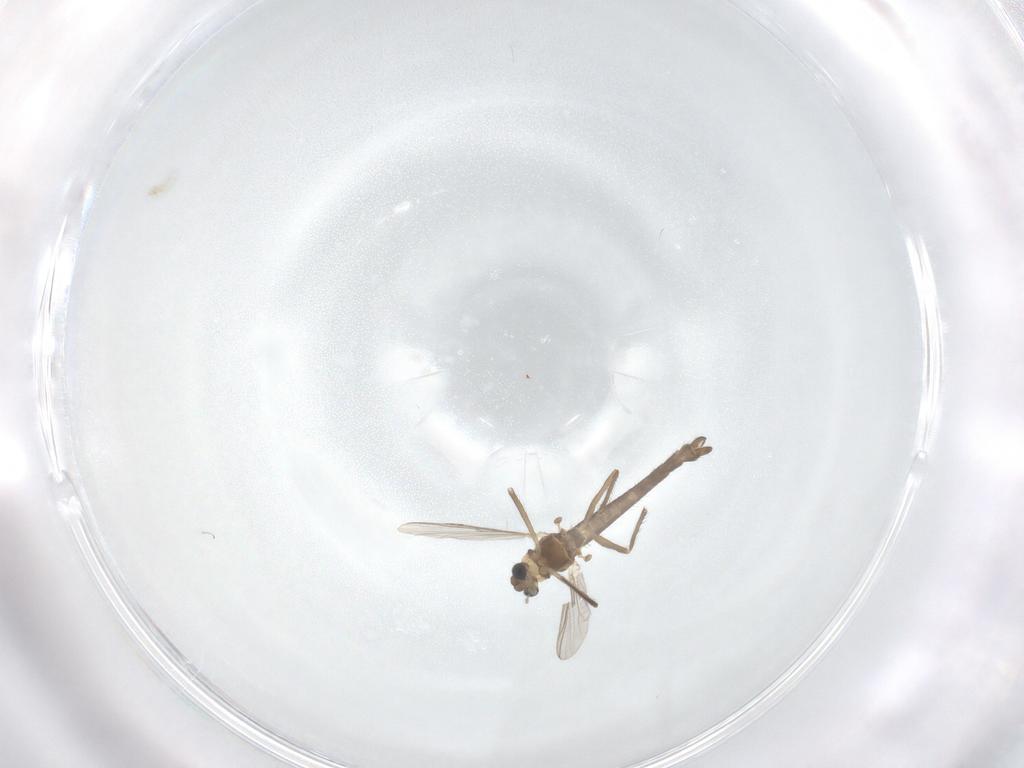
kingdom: Animalia
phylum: Arthropoda
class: Insecta
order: Diptera
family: Chironomidae
